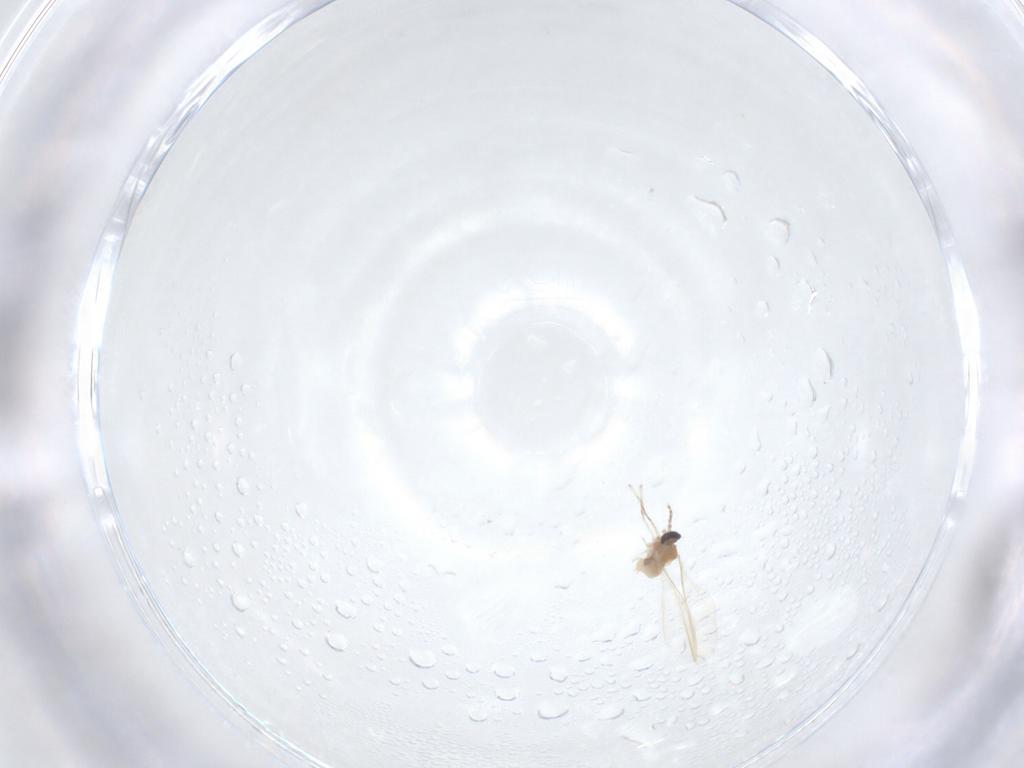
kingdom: Animalia
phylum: Arthropoda
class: Insecta
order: Diptera
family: Cecidomyiidae
